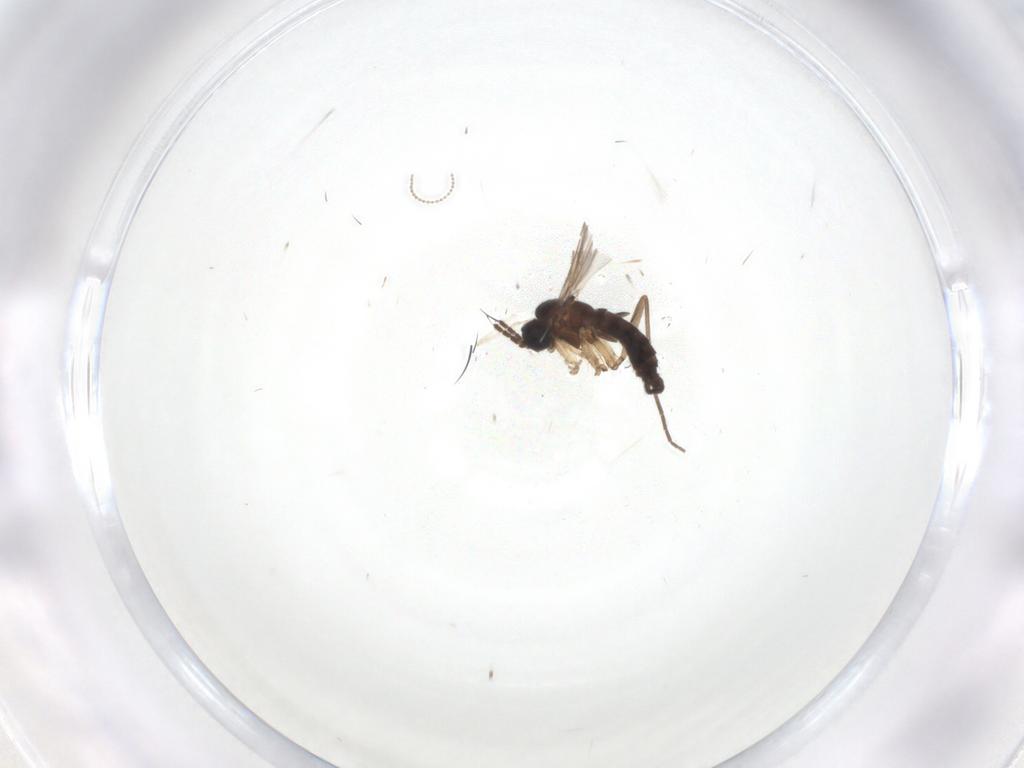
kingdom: Animalia
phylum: Arthropoda
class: Insecta
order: Diptera
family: Sciaridae
